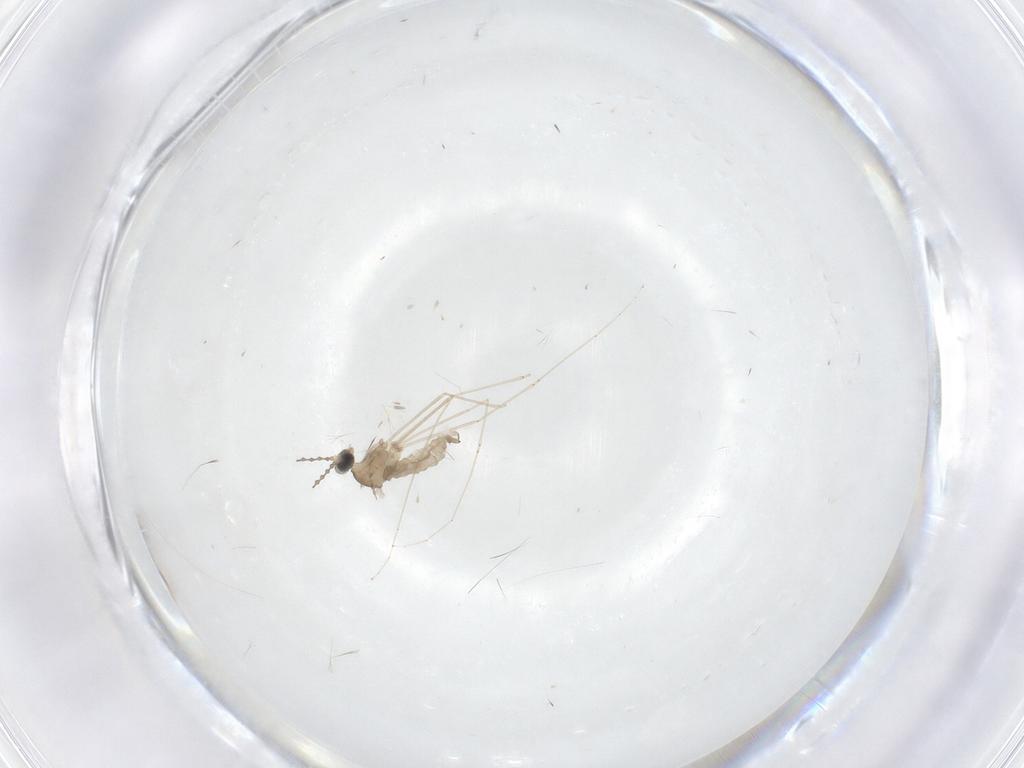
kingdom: Animalia
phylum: Arthropoda
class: Insecta
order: Diptera
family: Cecidomyiidae
